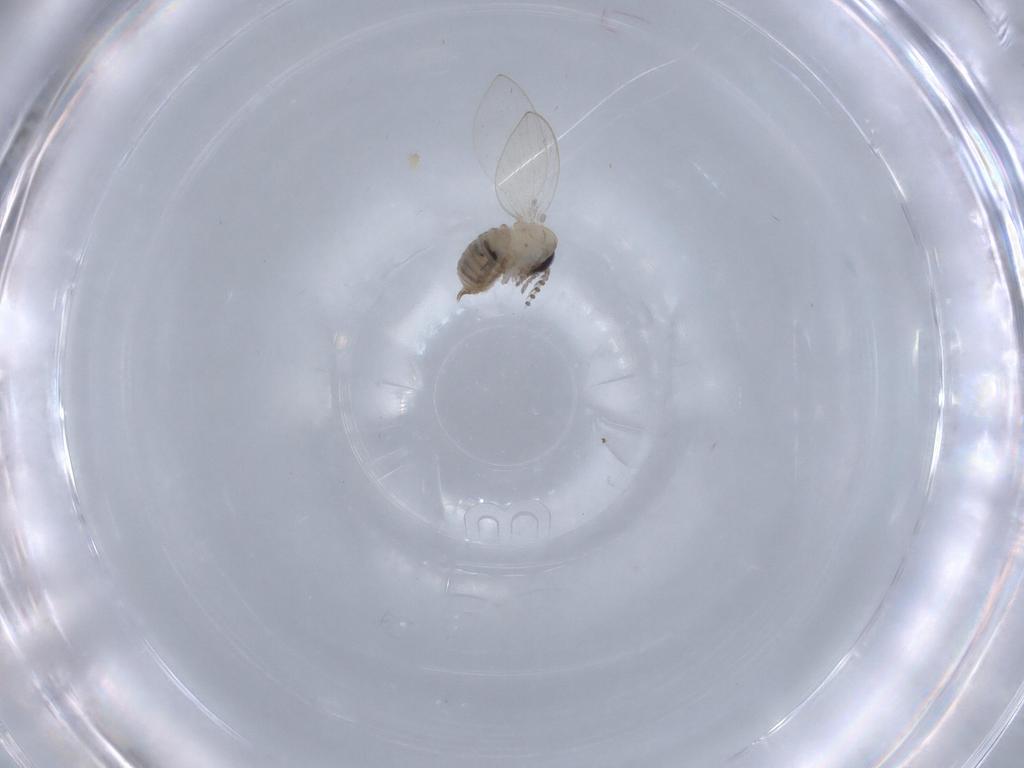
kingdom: Animalia
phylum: Arthropoda
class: Insecta
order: Diptera
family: Psychodidae
